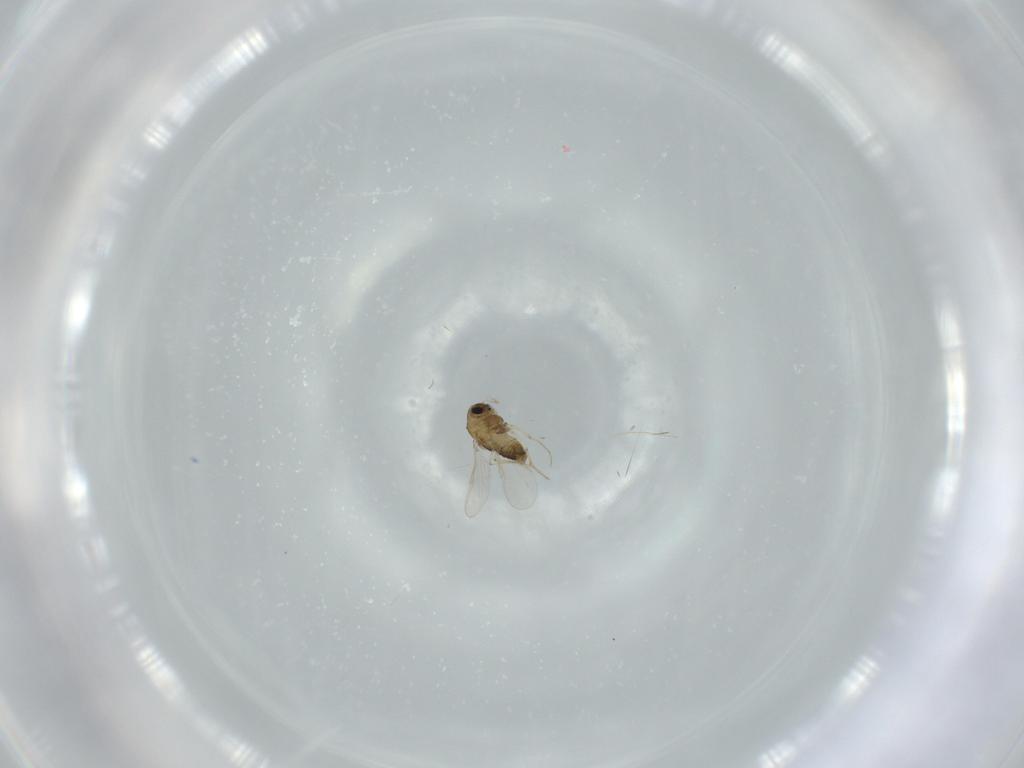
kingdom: Animalia
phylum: Arthropoda
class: Insecta
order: Diptera
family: Chironomidae
